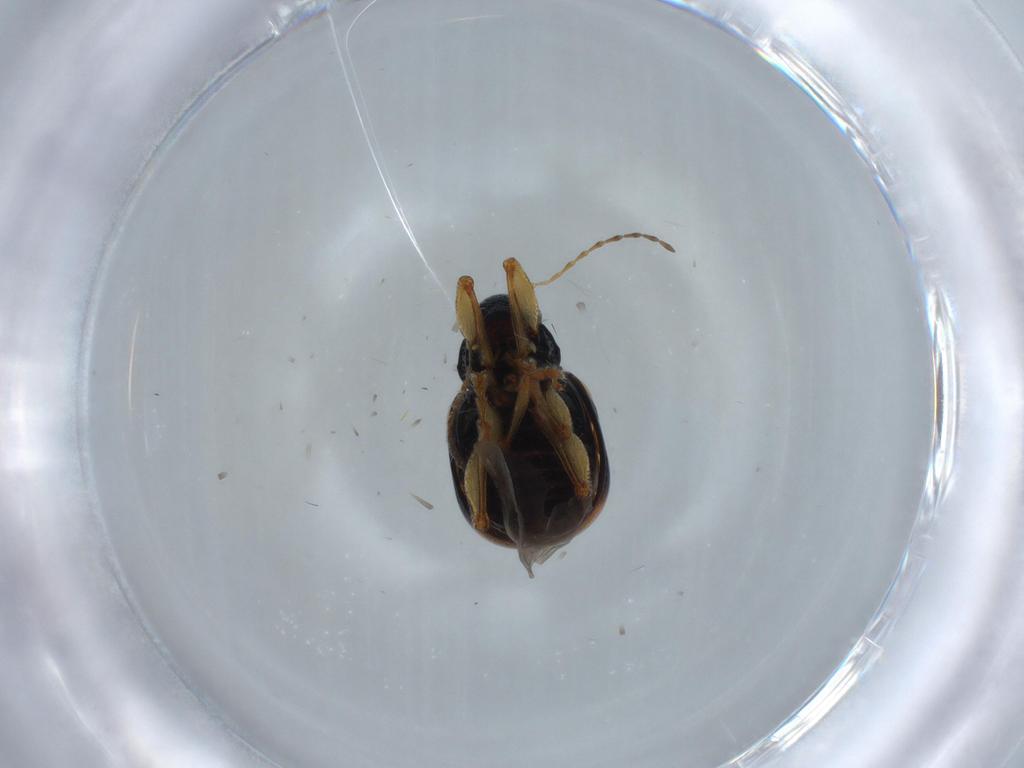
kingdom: Animalia
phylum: Arthropoda
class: Insecta
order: Coleoptera
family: Chrysomelidae
